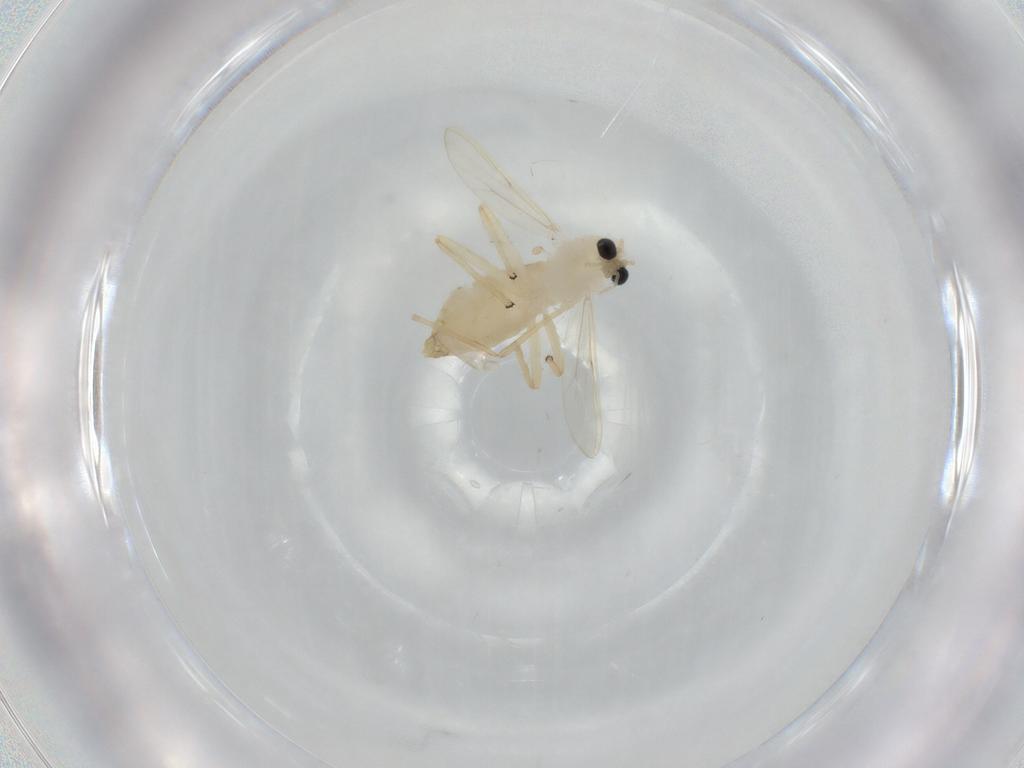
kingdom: Animalia
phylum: Arthropoda
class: Insecta
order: Diptera
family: Chironomidae
